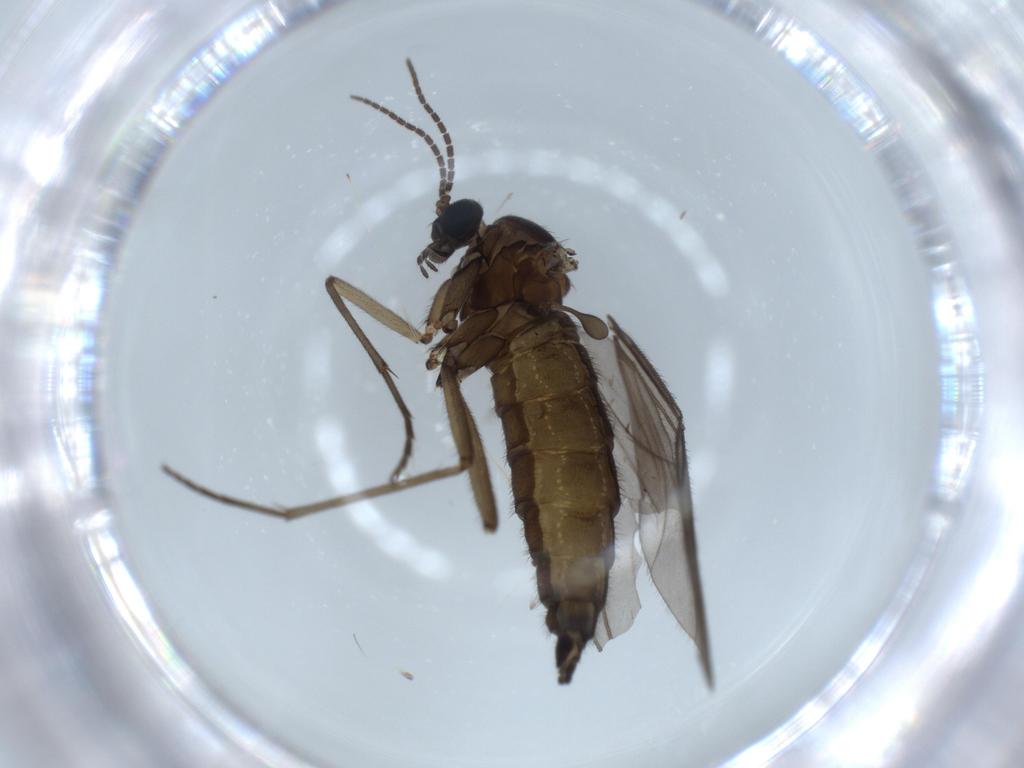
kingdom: Animalia
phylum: Arthropoda
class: Insecta
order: Diptera
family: Sciaridae
